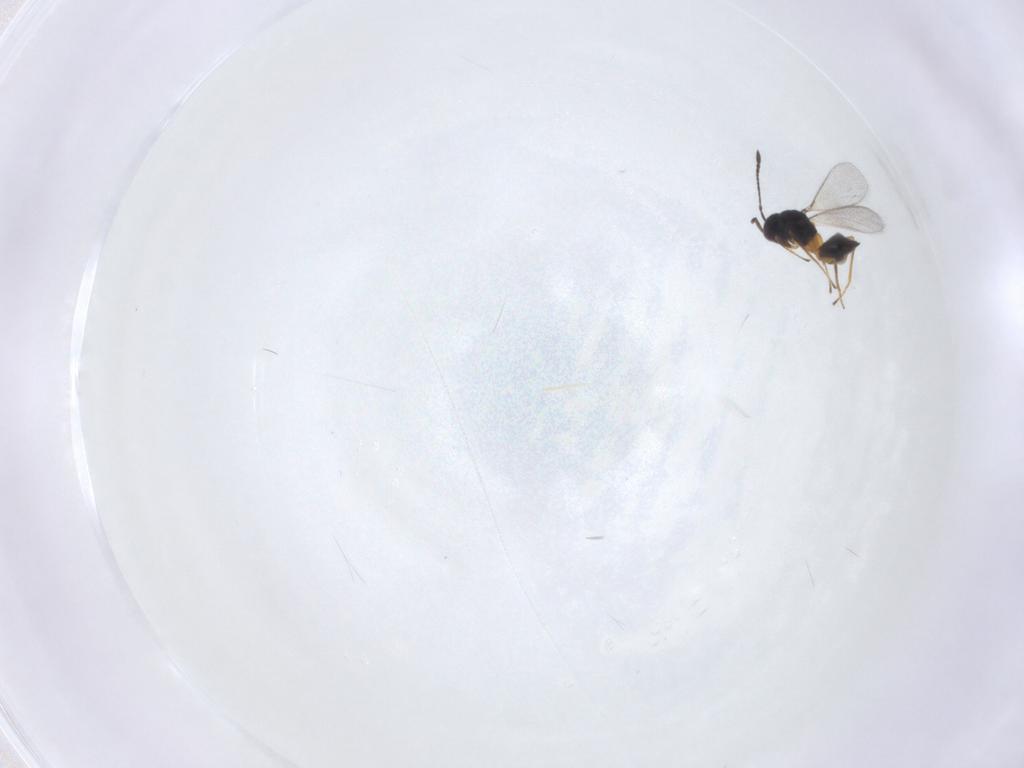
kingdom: Animalia
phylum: Arthropoda
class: Insecta
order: Hymenoptera
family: Mymaridae
